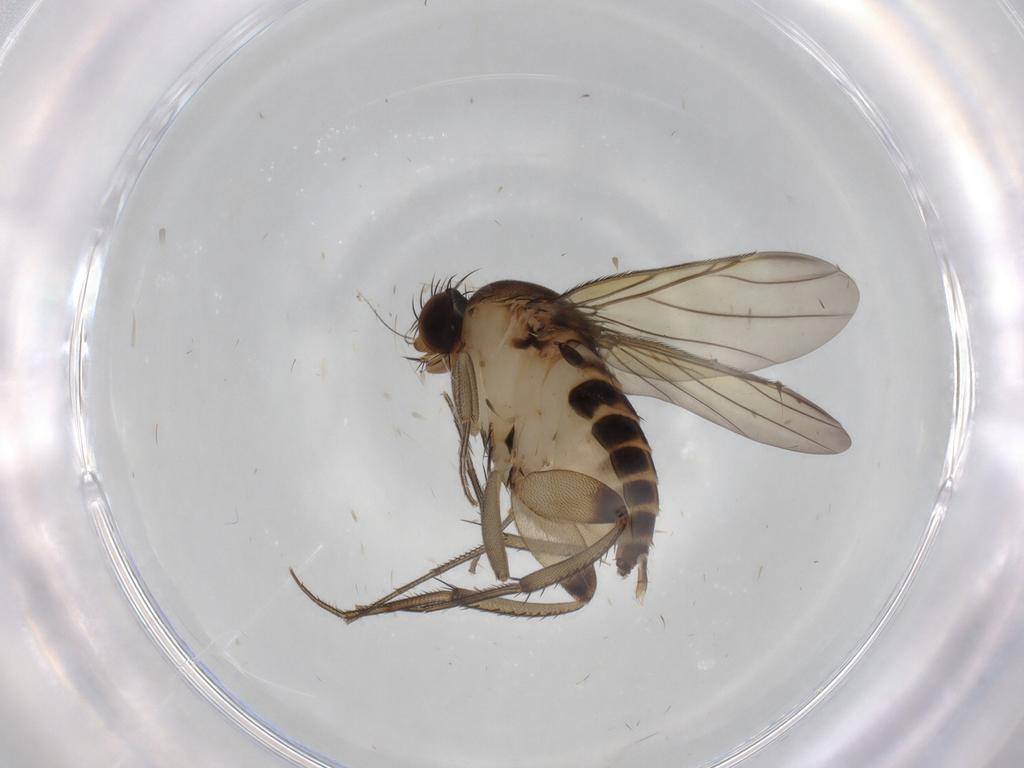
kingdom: Animalia
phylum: Arthropoda
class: Insecta
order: Diptera
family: Phoridae
